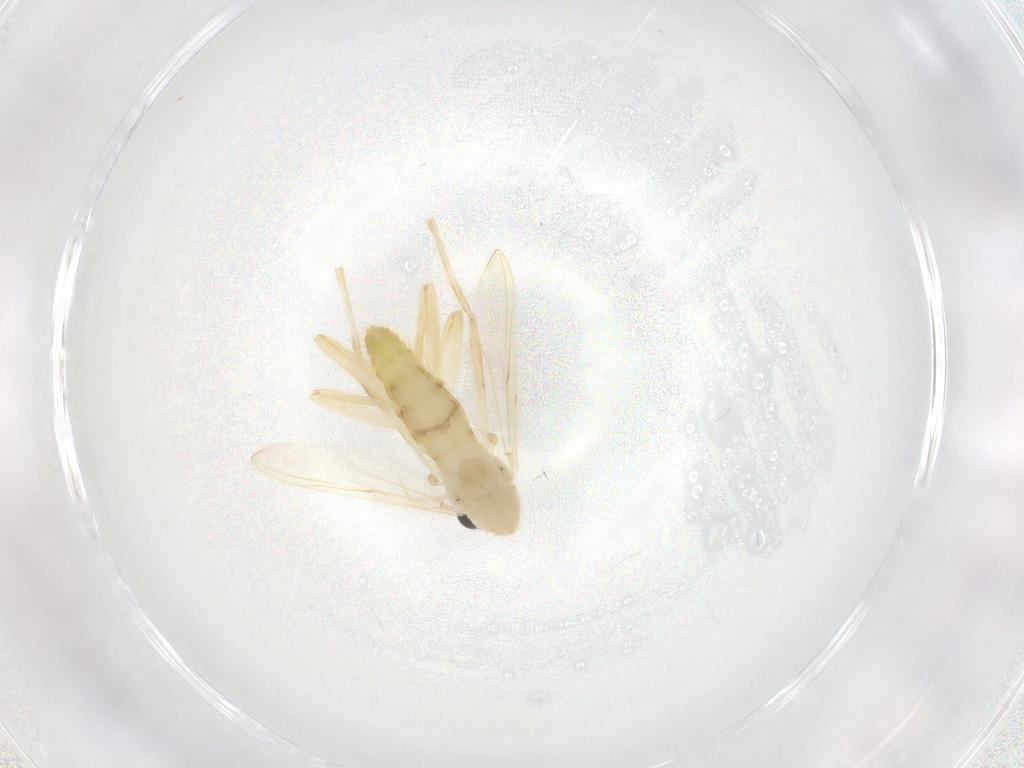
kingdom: Animalia
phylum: Arthropoda
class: Insecta
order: Diptera
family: Chironomidae
